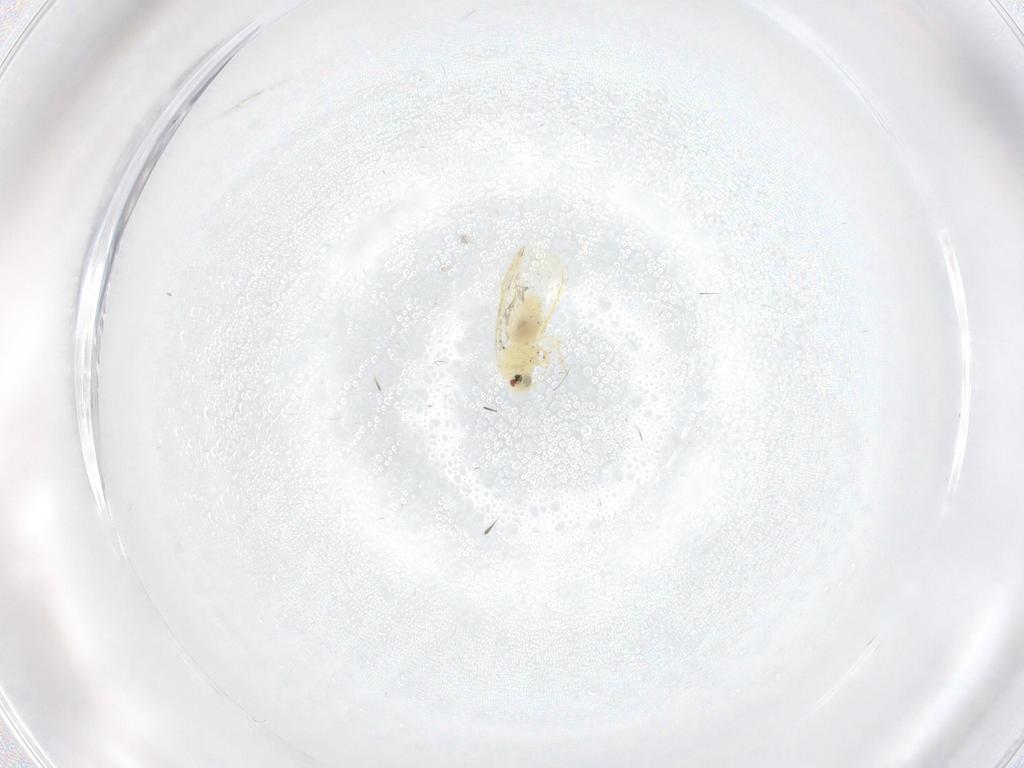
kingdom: Animalia
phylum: Arthropoda
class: Insecta
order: Hemiptera
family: Aleyrodidae
